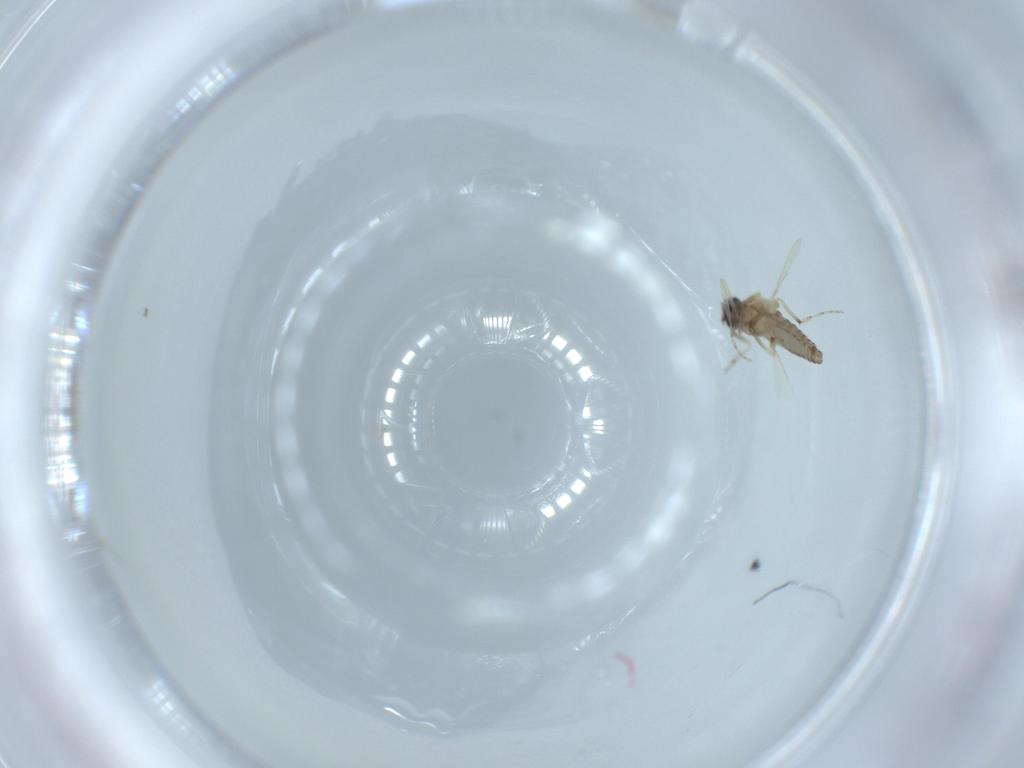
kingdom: Animalia
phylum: Arthropoda
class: Insecta
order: Diptera
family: Ceratopogonidae
